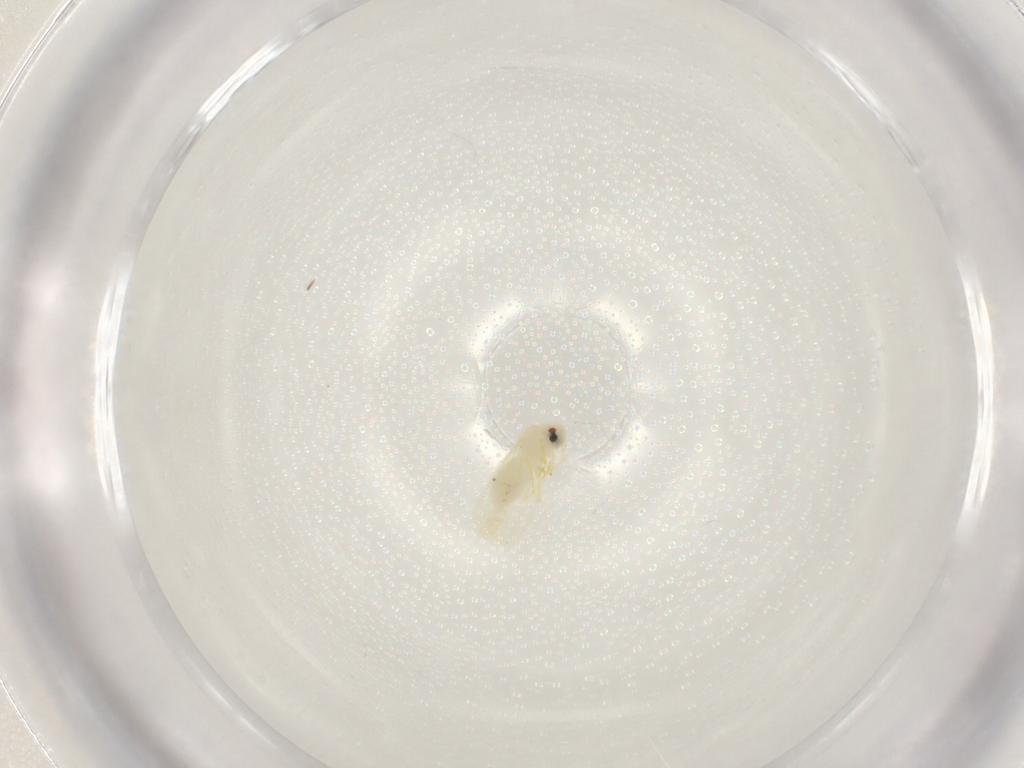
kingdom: Animalia
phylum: Arthropoda
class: Insecta
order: Hemiptera
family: Aleyrodidae
